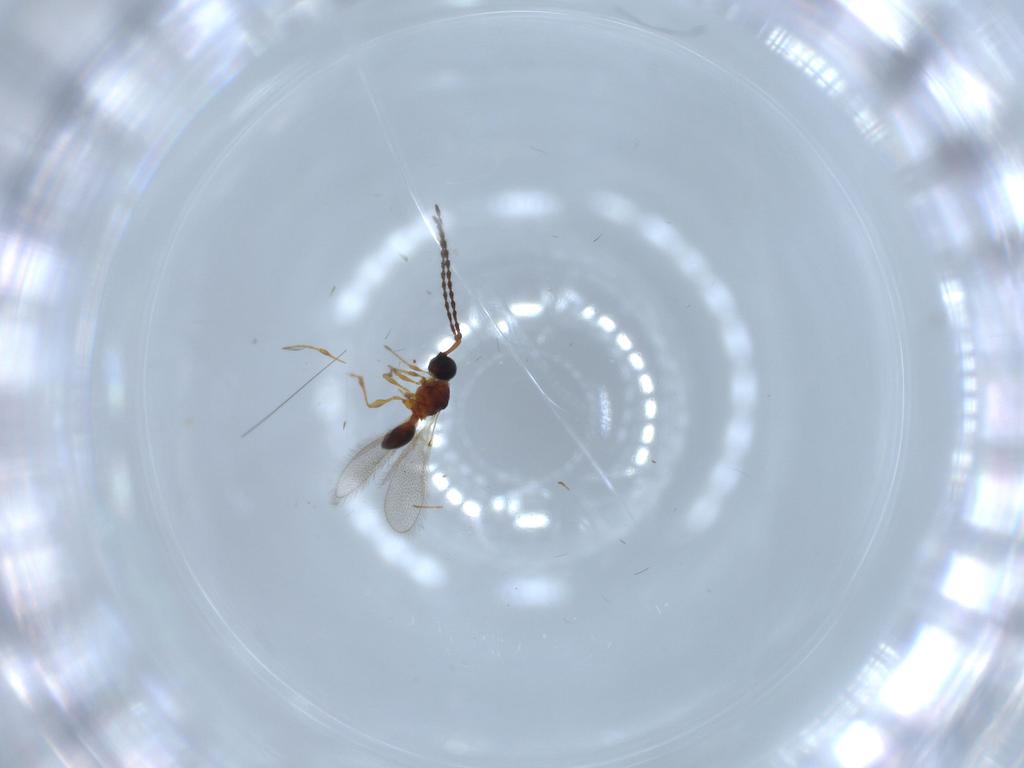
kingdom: Animalia
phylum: Arthropoda
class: Insecta
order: Hymenoptera
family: Diapriidae
